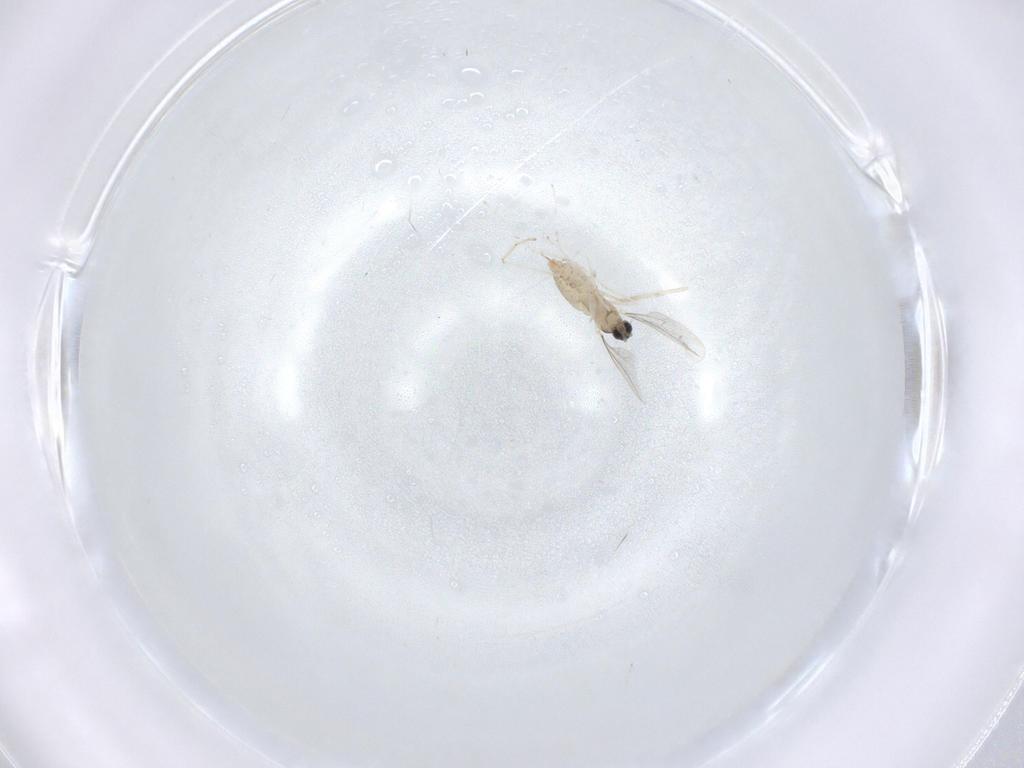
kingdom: Animalia
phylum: Arthropoda
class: Insecta
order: Diptera
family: Cecidomyiidae
